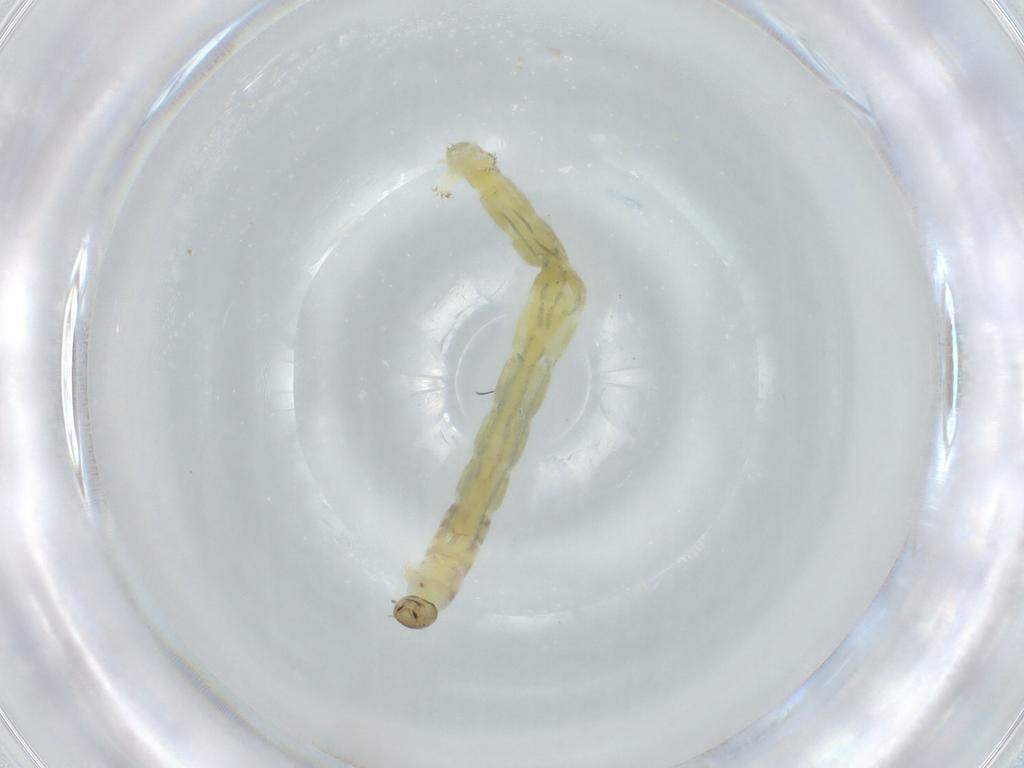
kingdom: Animalia
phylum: Arthropoda
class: Insecta
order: Diptera
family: Chironomidae
